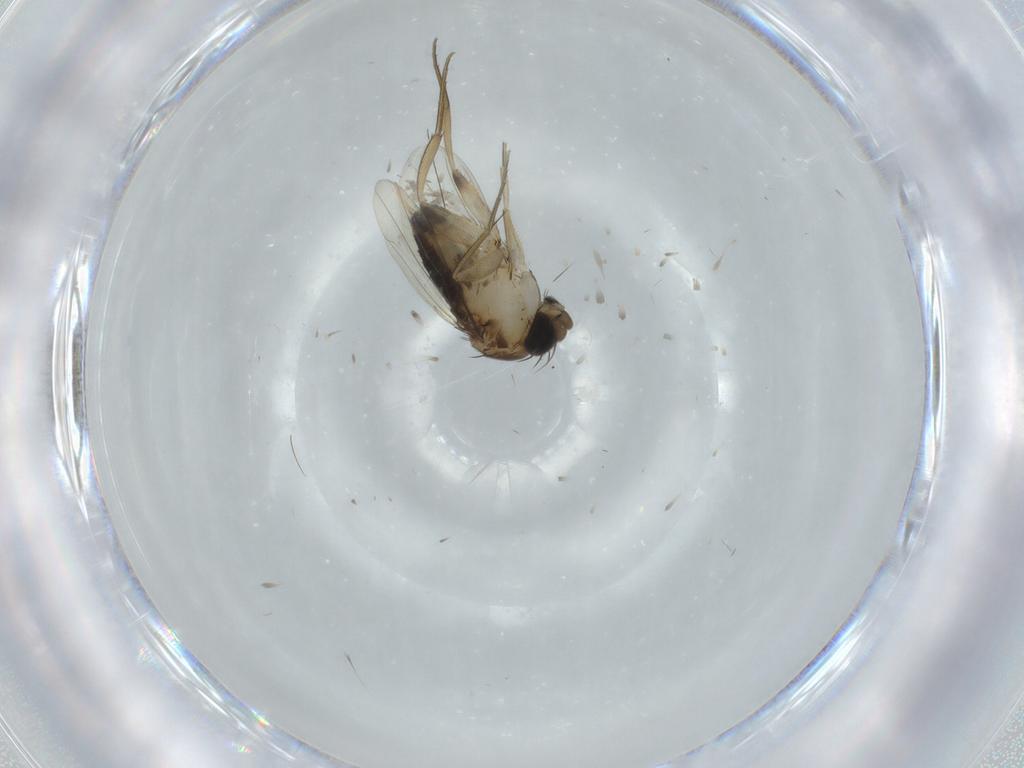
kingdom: Animalia
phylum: Arthropoda
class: Insecta
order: Diptera
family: Phoridae
